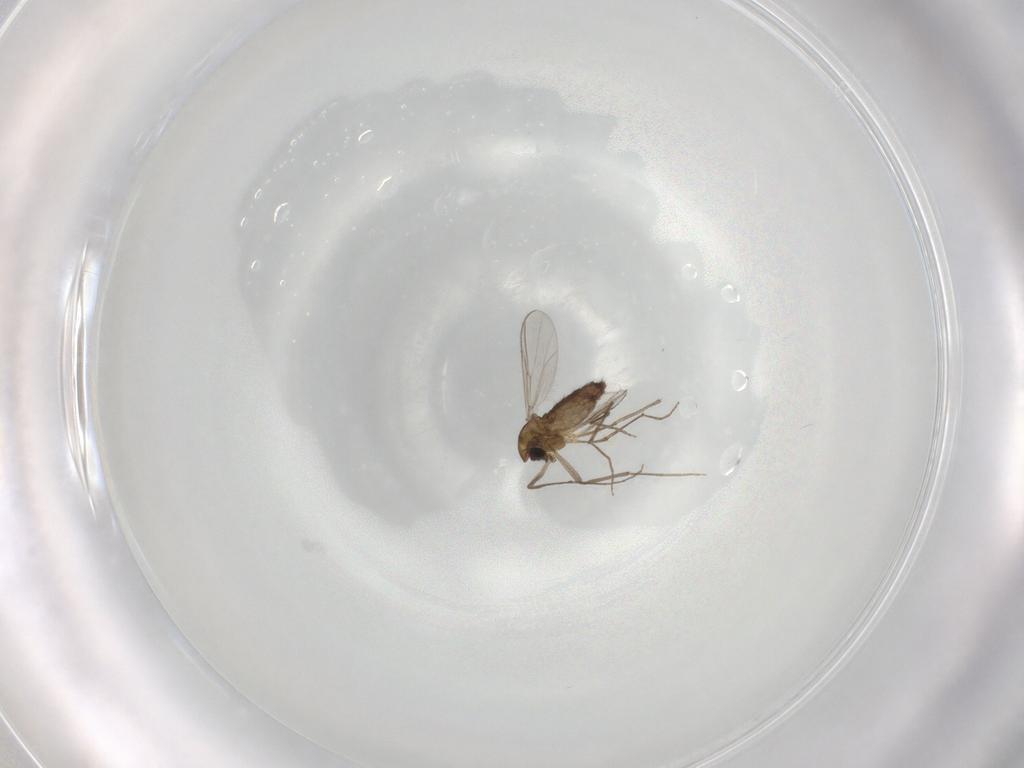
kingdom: Animalia
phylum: Arthropoda
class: Insecta
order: Diptera
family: Chironomidae
